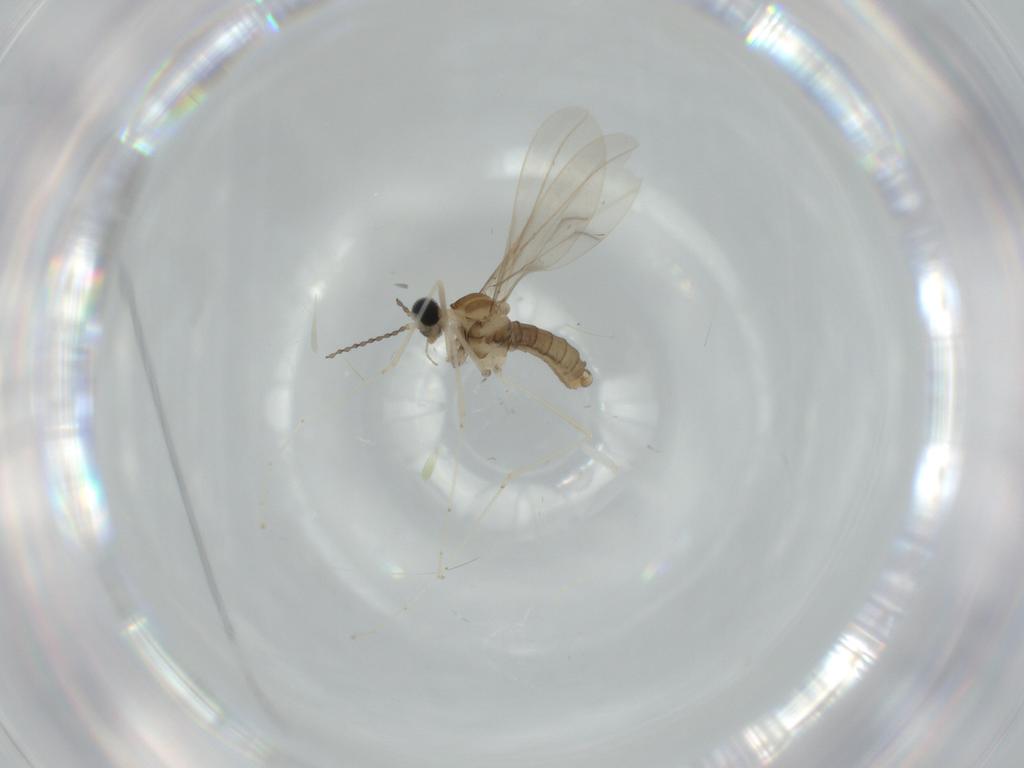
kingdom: Animalia
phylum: Arthropoda
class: Insecta
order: Diptera
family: Cecidomyiidae
